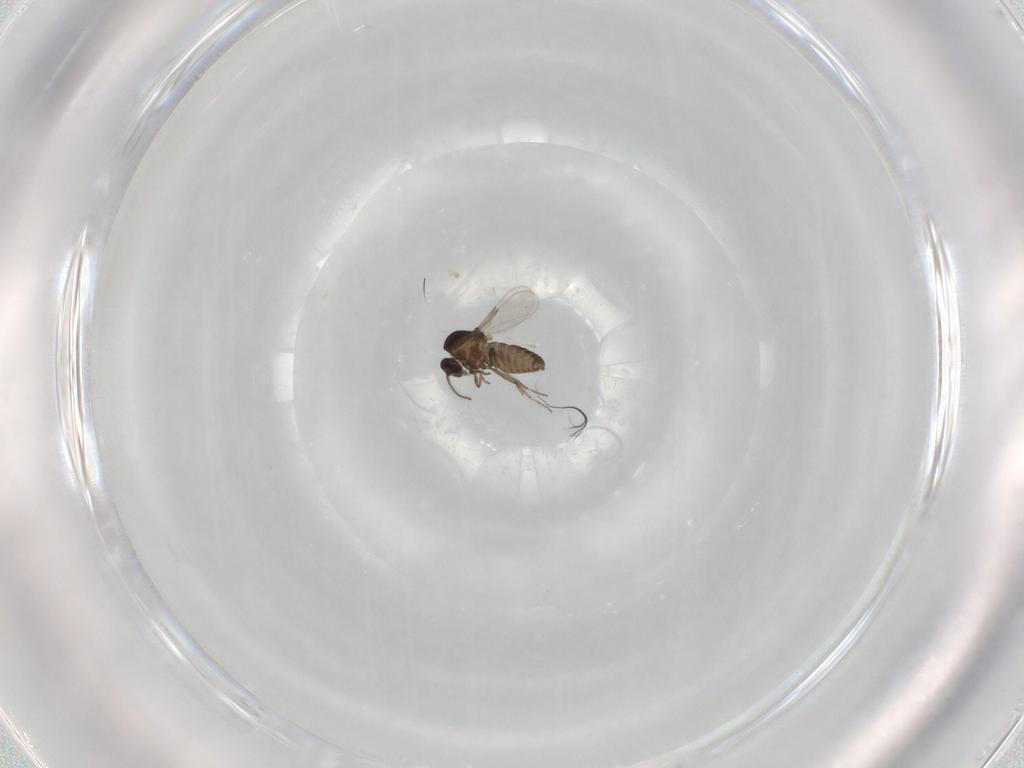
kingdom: Animalia
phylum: Arthropoda
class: Insecta
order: Diptera
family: Ceratopogonidae
